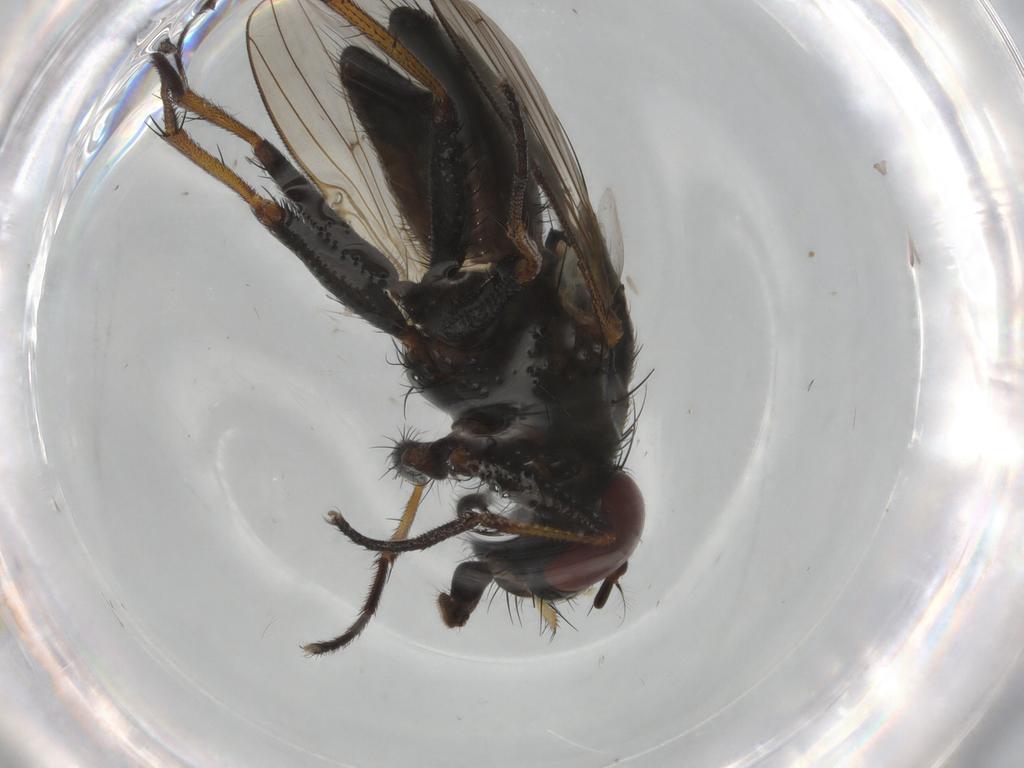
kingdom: Animalia
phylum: Arthropoda
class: Insecta
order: Diptera
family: Muscidae
